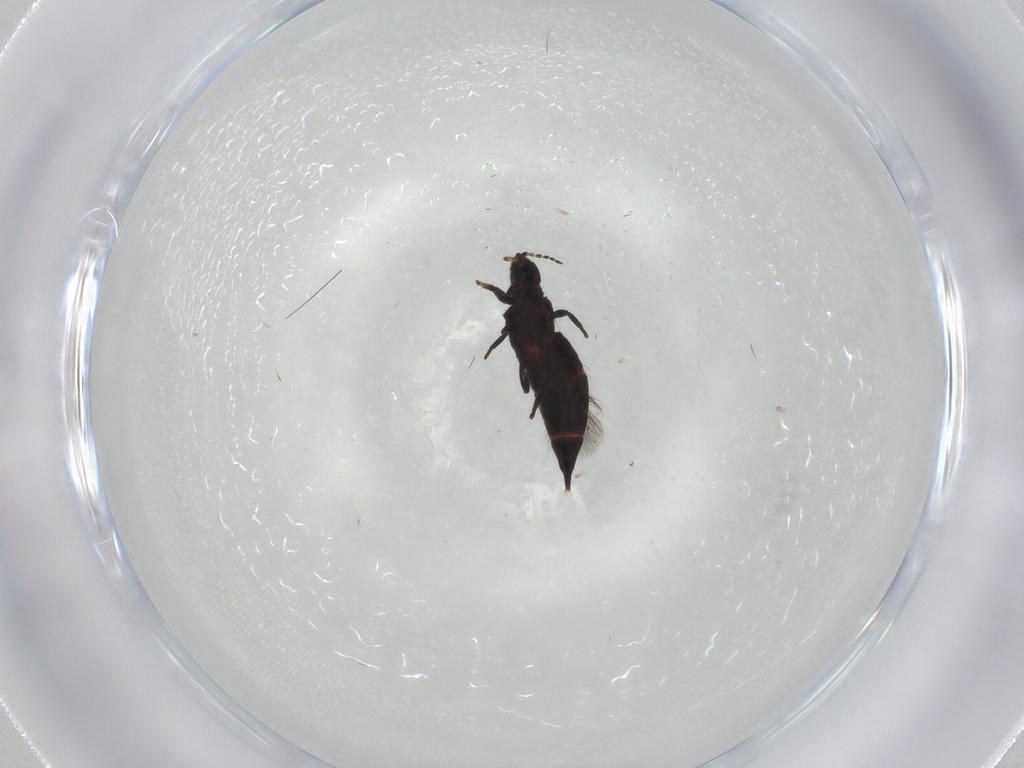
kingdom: Animalia
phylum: Arthropoda
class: Insecta
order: Thysanoptera
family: Phlaeothripidae
